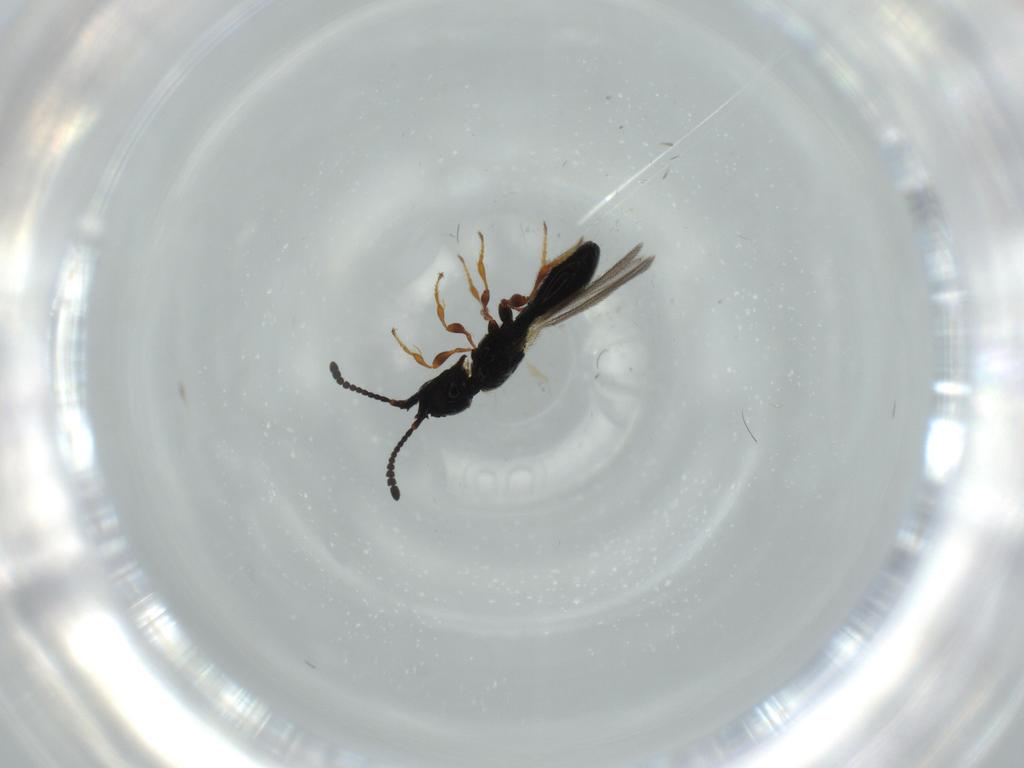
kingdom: Animalia
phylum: Arthropoda
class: Insecta
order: Hymenoptera
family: Diapriidae
